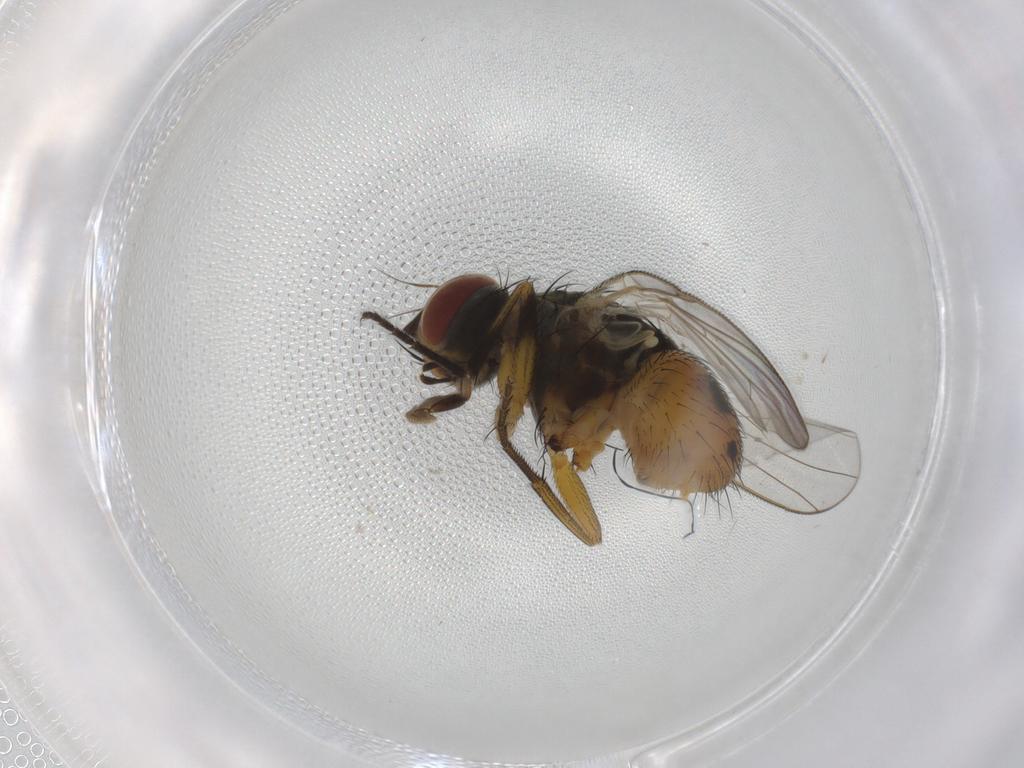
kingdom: Animalia
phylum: Arthropoda
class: Insecta
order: Diptera
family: Muscidae
